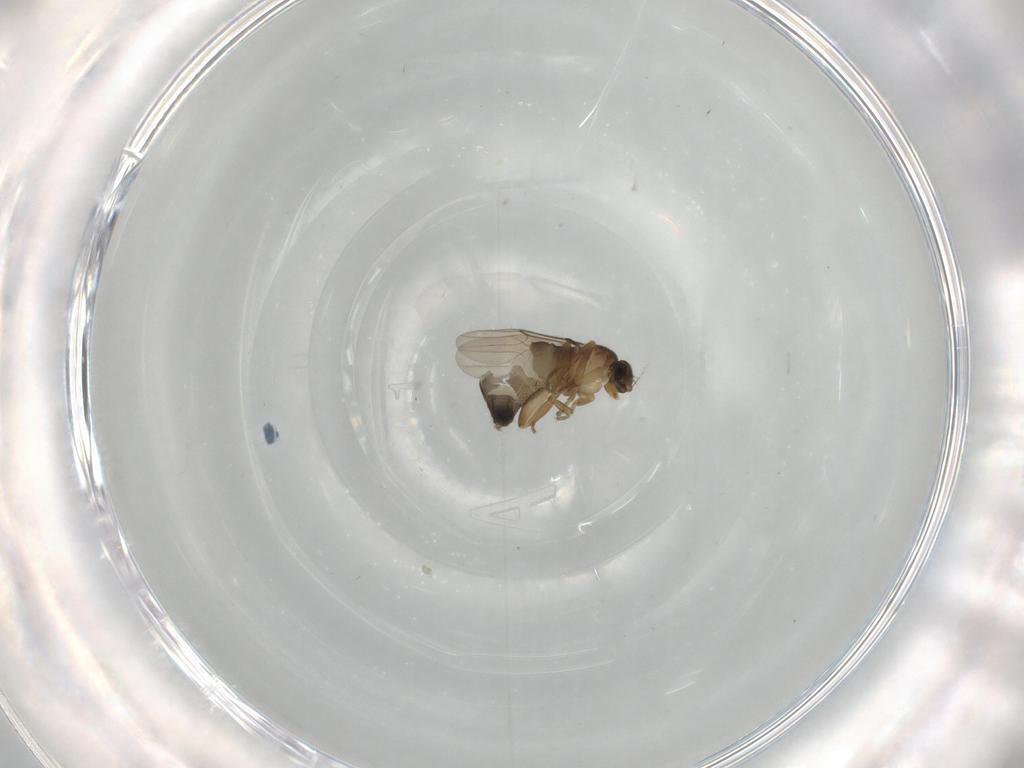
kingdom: Animalia
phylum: Arthropoda
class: Insecta
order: Diptera
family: Phoridae
